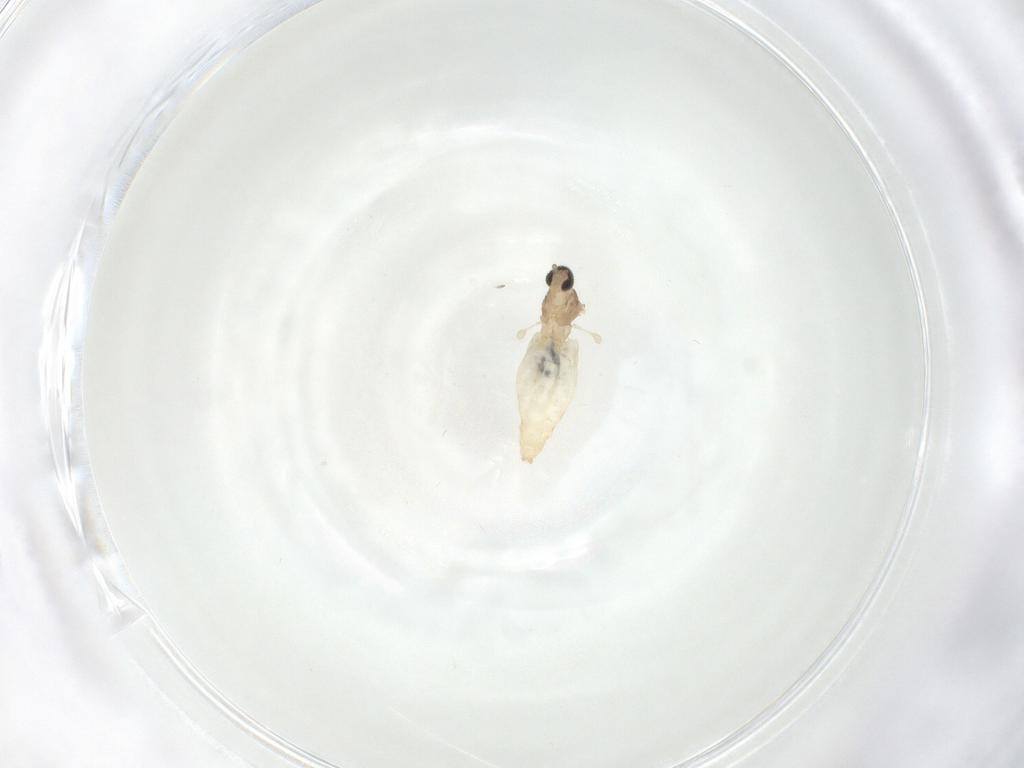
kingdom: Animalia
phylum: Arthropoda
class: Insecta
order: Diptera
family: Cecidomyiidae
